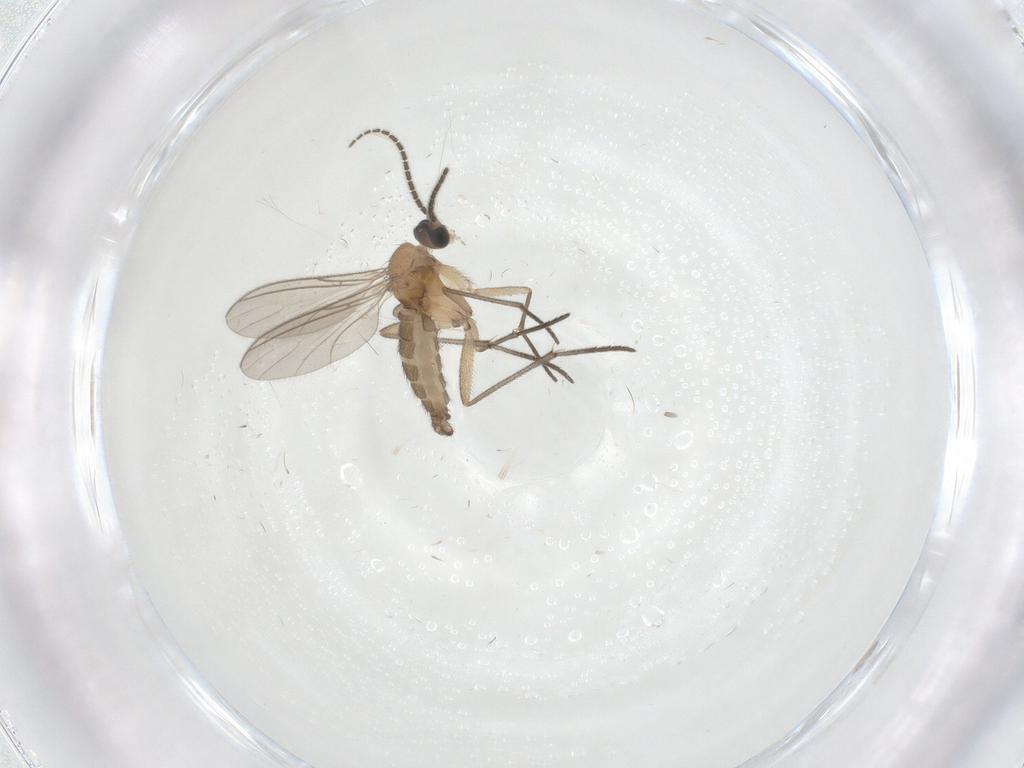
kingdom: Animalia
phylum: Arthropoda
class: Insecta
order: Diptera
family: Sciaridae
